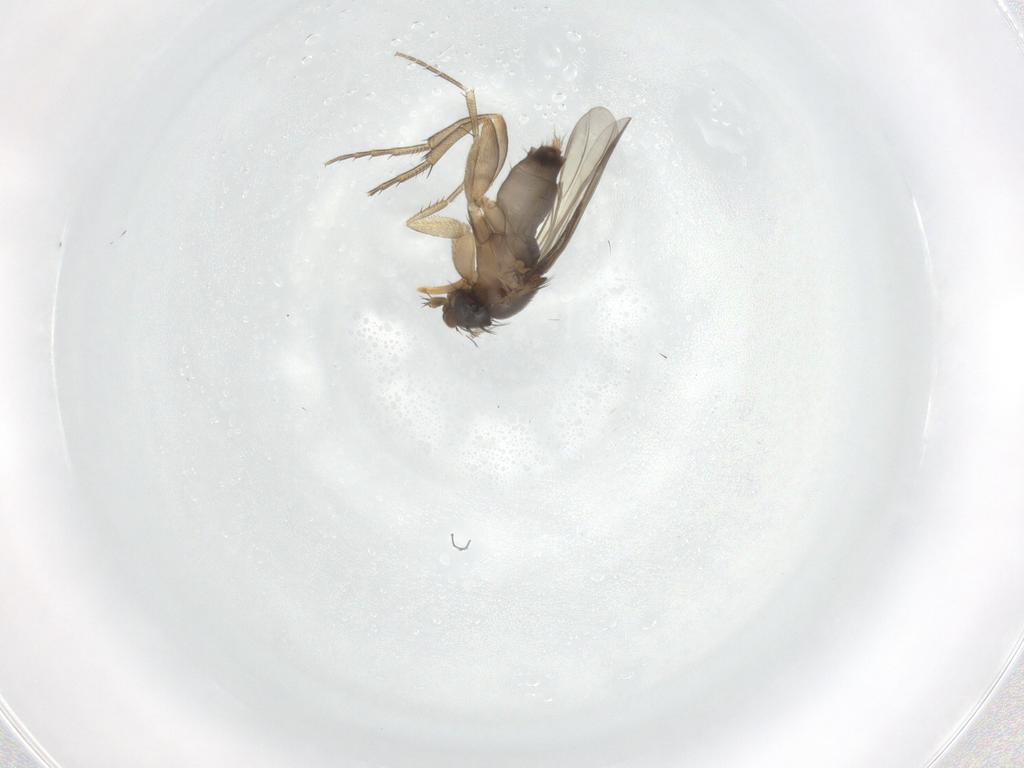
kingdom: Animalia
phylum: Arthropoda
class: Insecta
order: Diptera
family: Phoridae
